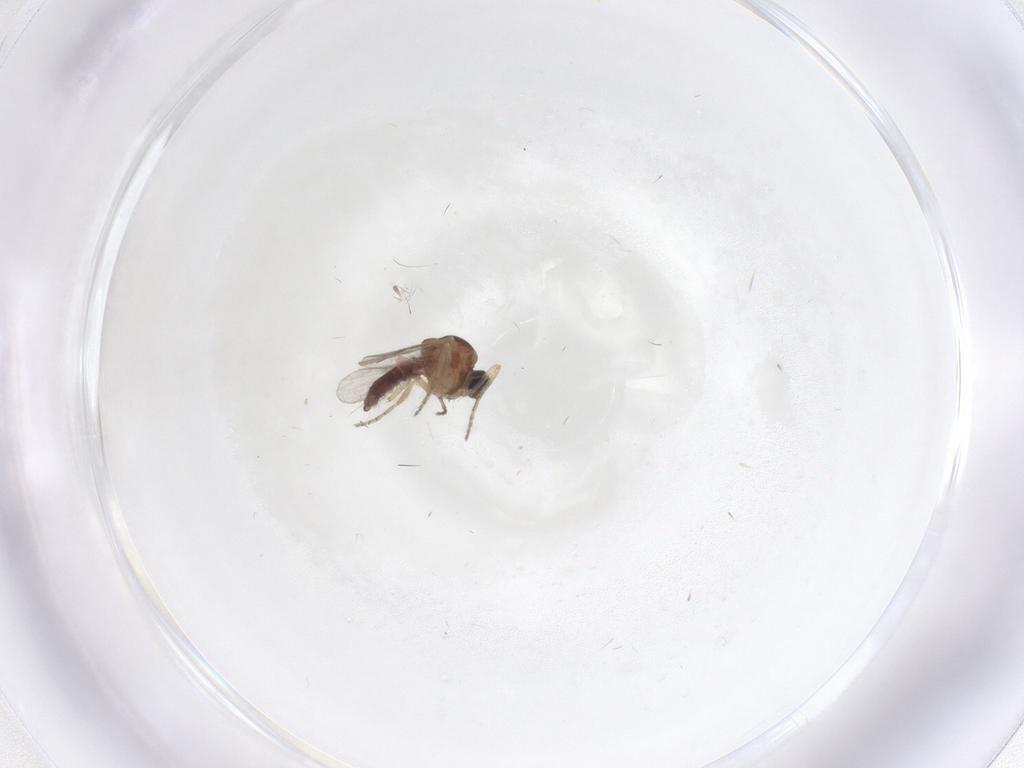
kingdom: Animalia
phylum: Arthropoda
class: Insecta
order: Diptera
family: Ceratopogonidae
